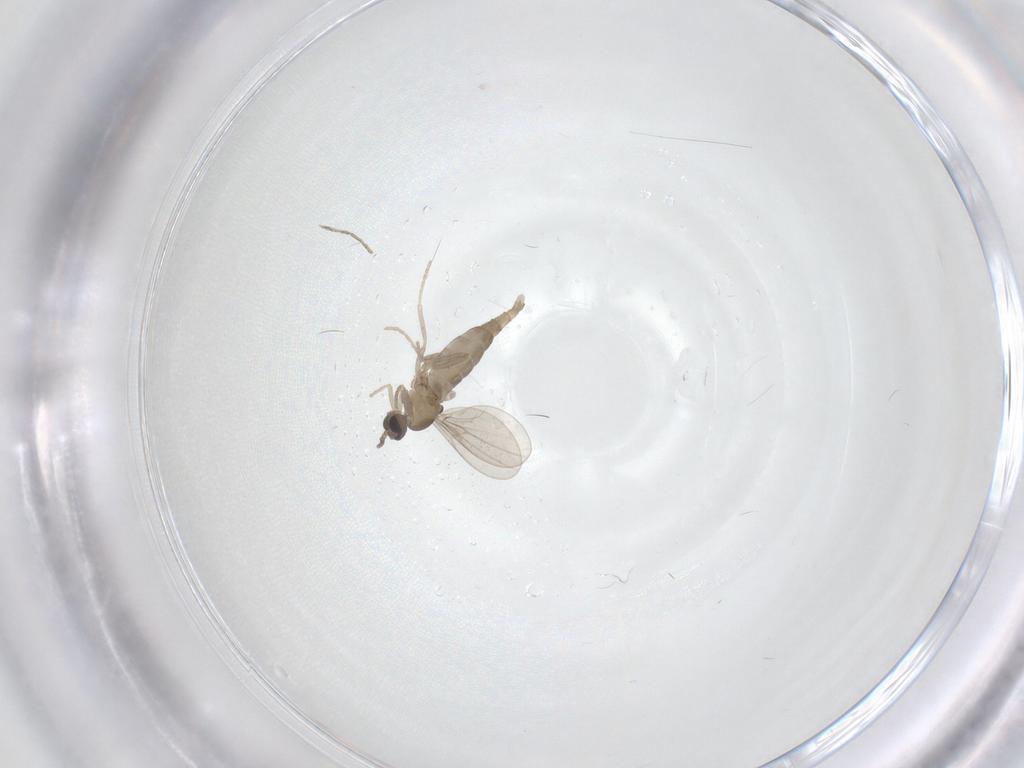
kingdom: Animalia
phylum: Arthropoda
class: Insecta
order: Diptera
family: Cecidomyiidae
